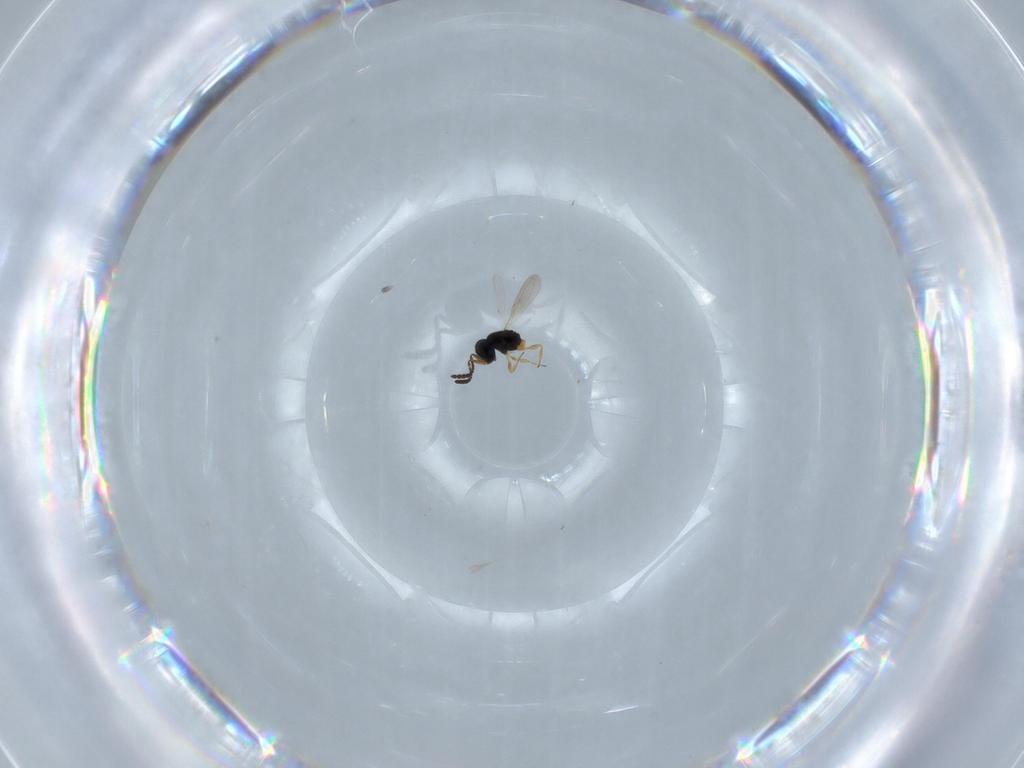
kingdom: Animalia
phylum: Arthropoda
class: Insecta
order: Hymenoptera
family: Scelionidae
